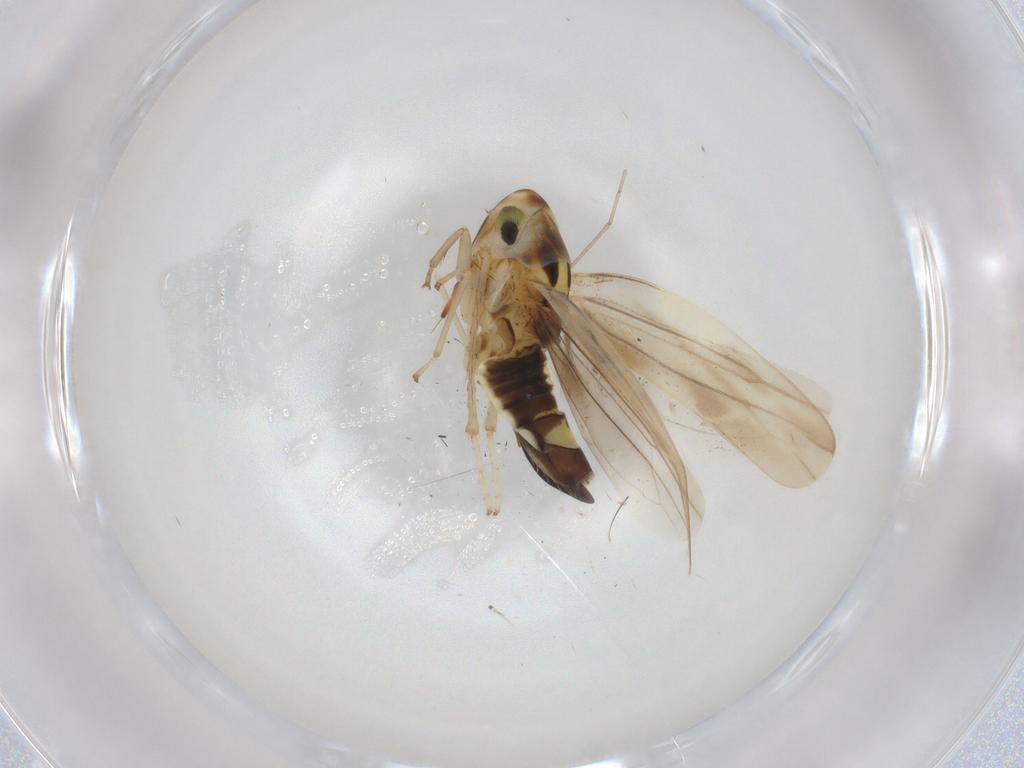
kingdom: Animalia
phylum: Arthropoda
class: Insecta
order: Hemiptera
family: Cicadellidae
